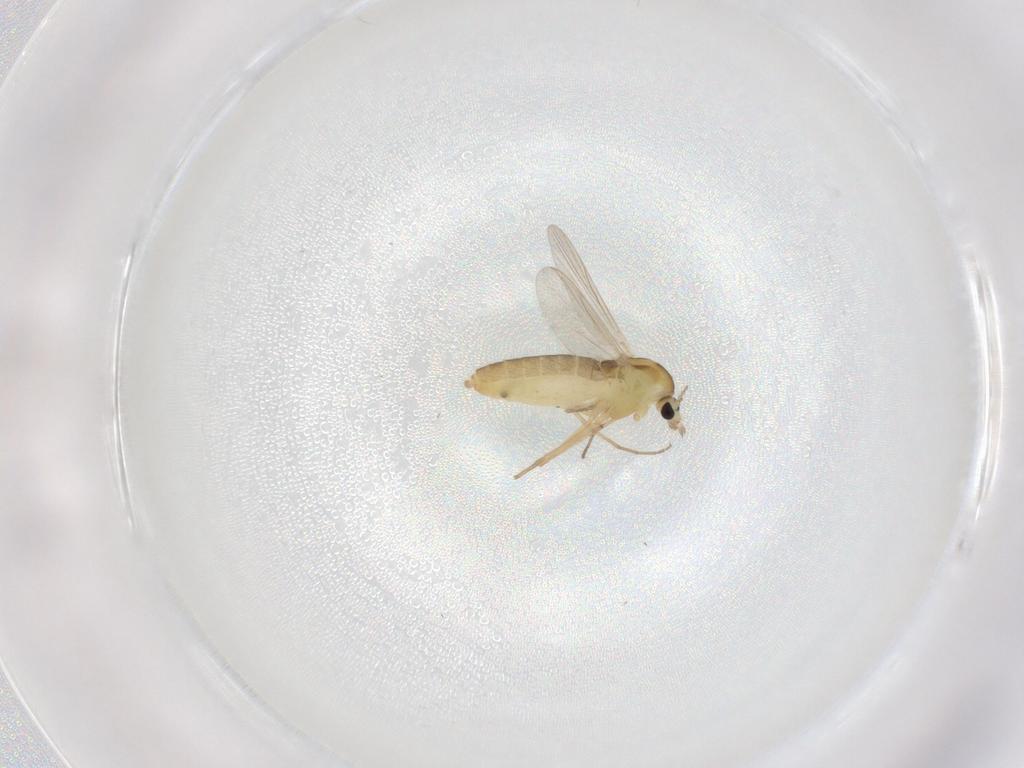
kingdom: Animalia
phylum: Arthropoda
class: Insecta
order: Diptera
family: Chironomidae
